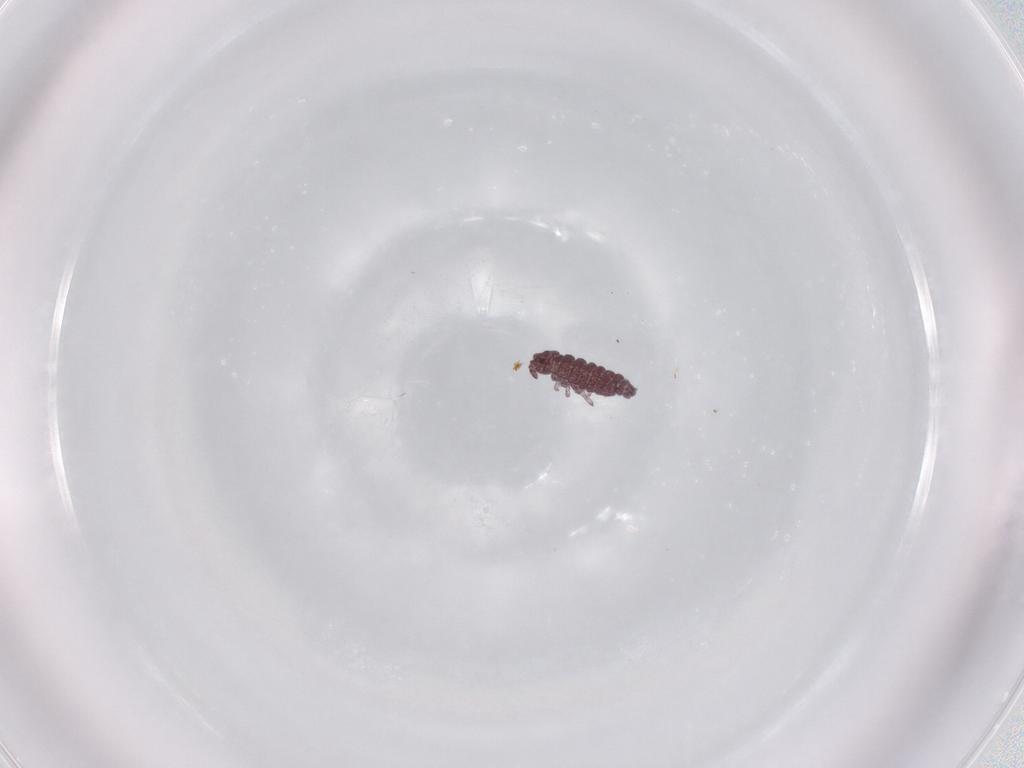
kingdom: Animalia
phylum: Arthropoda
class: Collembola
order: Poduromorpha
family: Hypogastruridae
